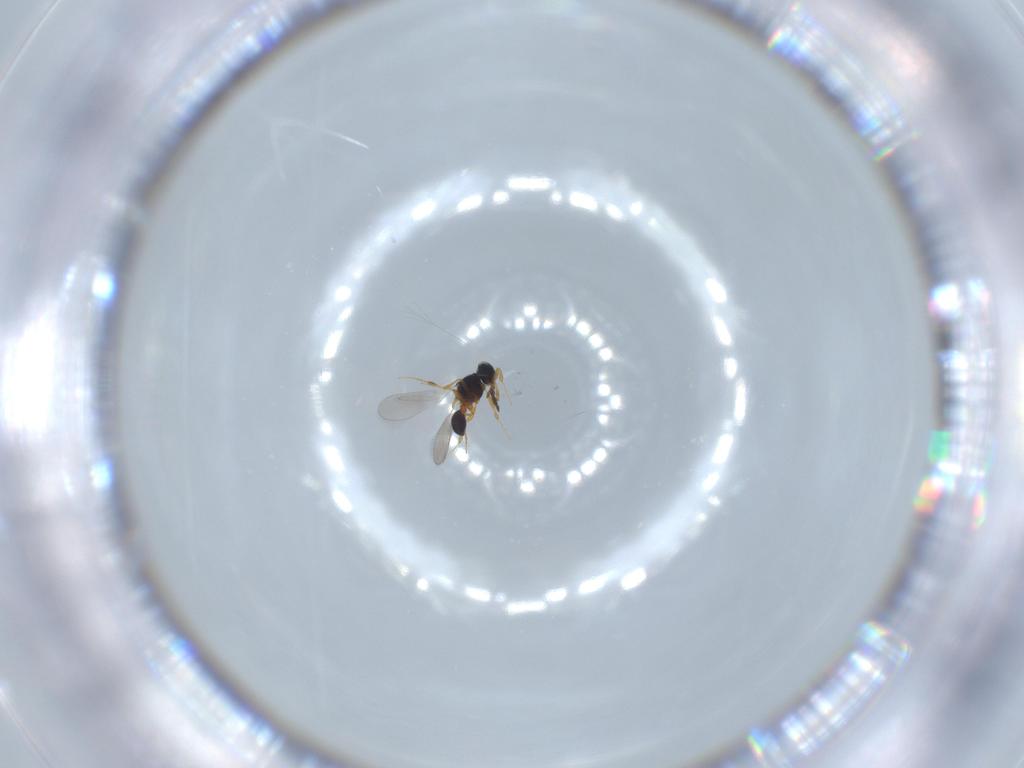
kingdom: Animalia
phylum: Arthropoda
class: Insecta
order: Hymenoptera
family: Platygastridae
